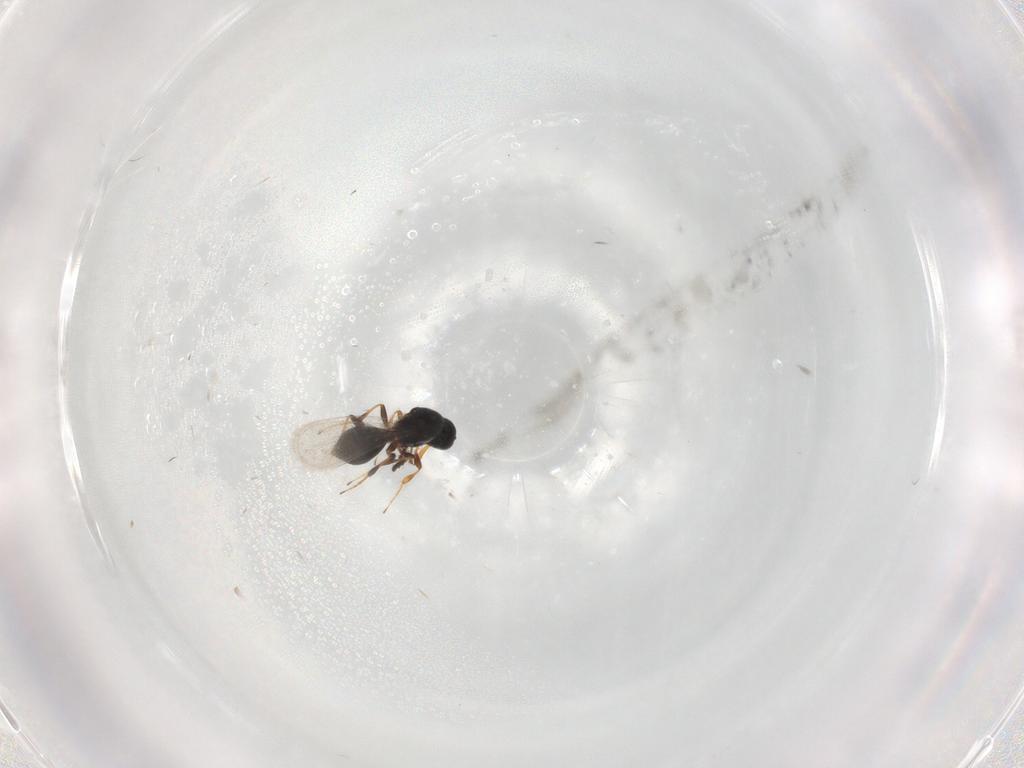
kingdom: Animalia
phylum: Arthropoda
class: Insecta
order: Hymenoptera
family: Platygastridae
